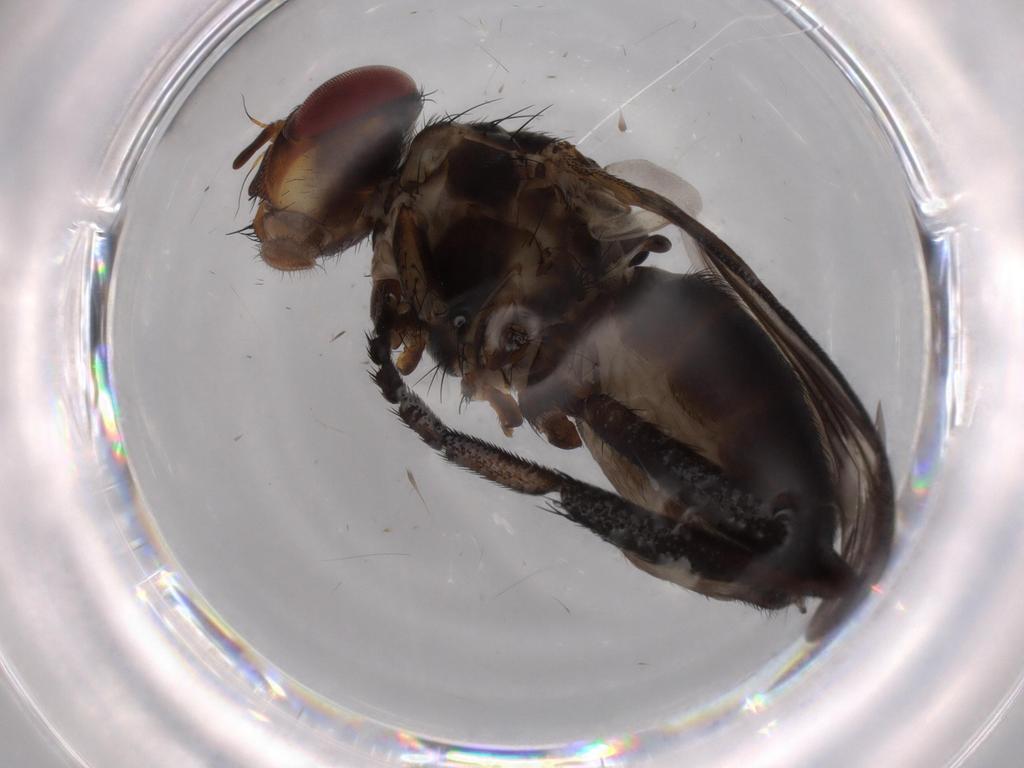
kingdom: Animalia
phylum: Arthropoda
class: Insecta
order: Diptera
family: Calliphoridae
